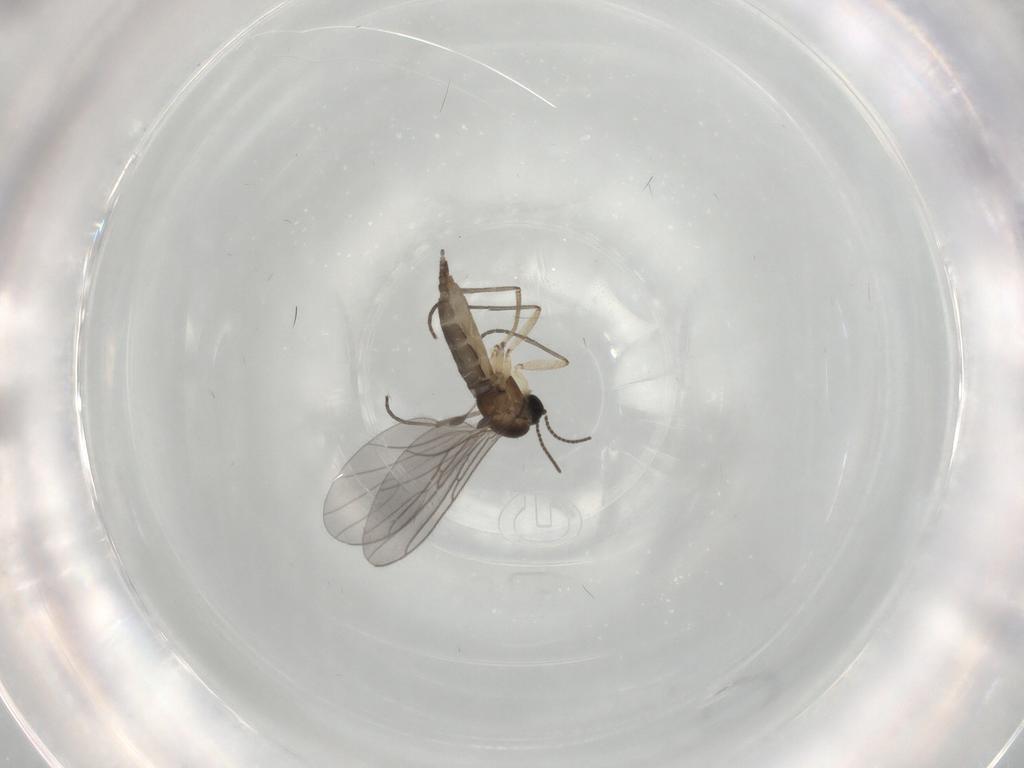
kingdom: Animalia
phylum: Arthropoda
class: Insecta
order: Diptera
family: Sciaridae
